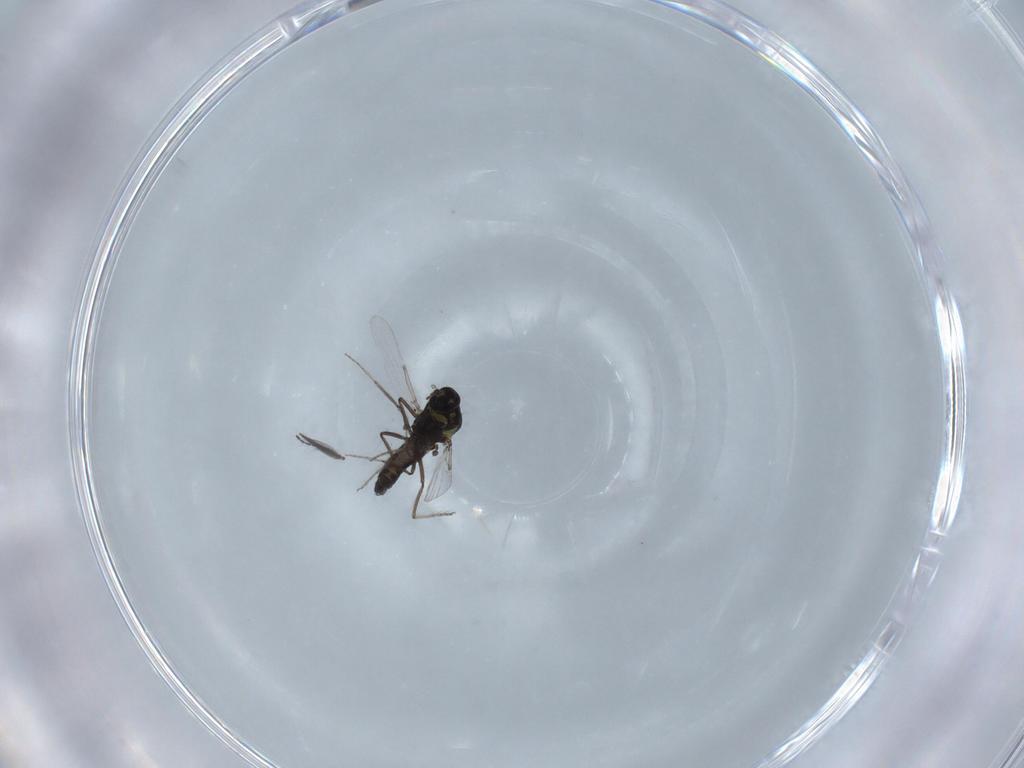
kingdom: Animalia
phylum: Arthropoda
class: Insecta
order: Diptera
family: Ceratopogonidae
